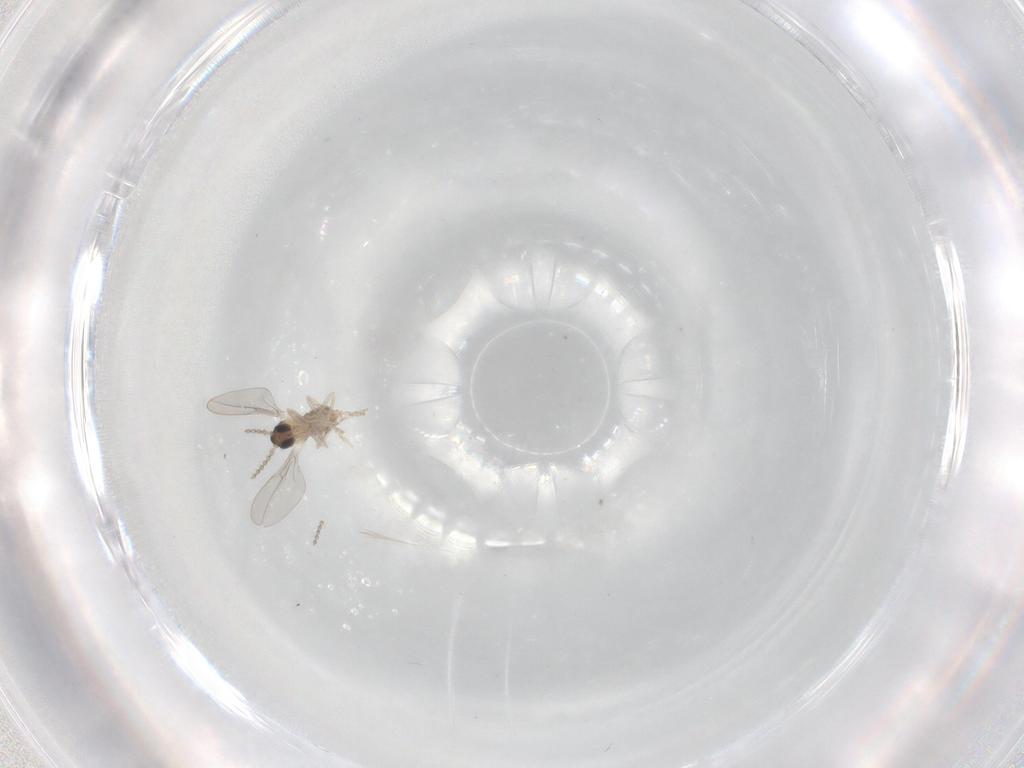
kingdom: Animalia
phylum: Arthropoda
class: Insecta
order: Diptera
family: Cecidomyiidae
